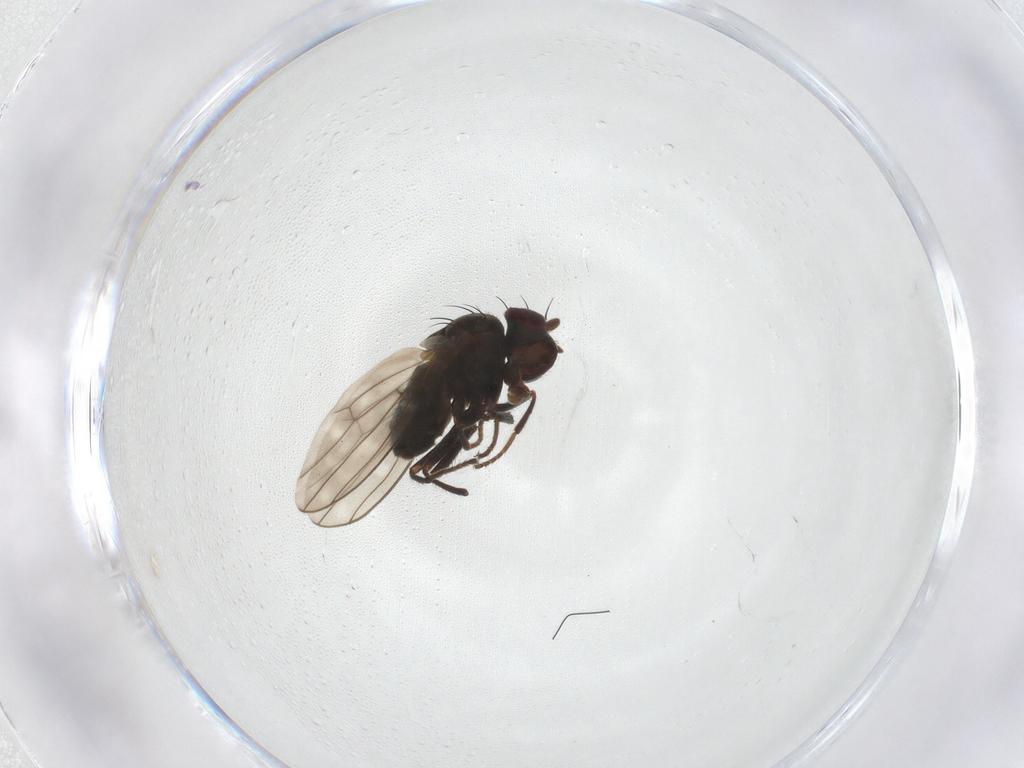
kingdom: Animalia
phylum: Arthropoda
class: Insecta
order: Diptera
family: Ephydridae
